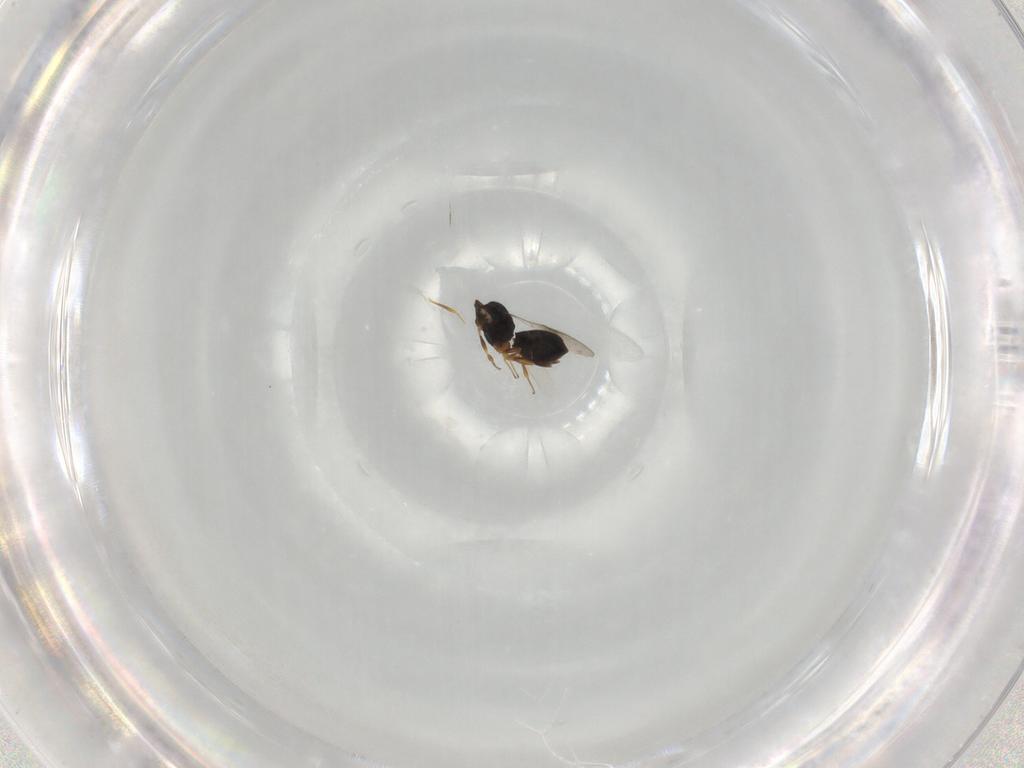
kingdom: Animalia
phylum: Arthropoda
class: Insecta
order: Hymenoptera
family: Scelionidae
